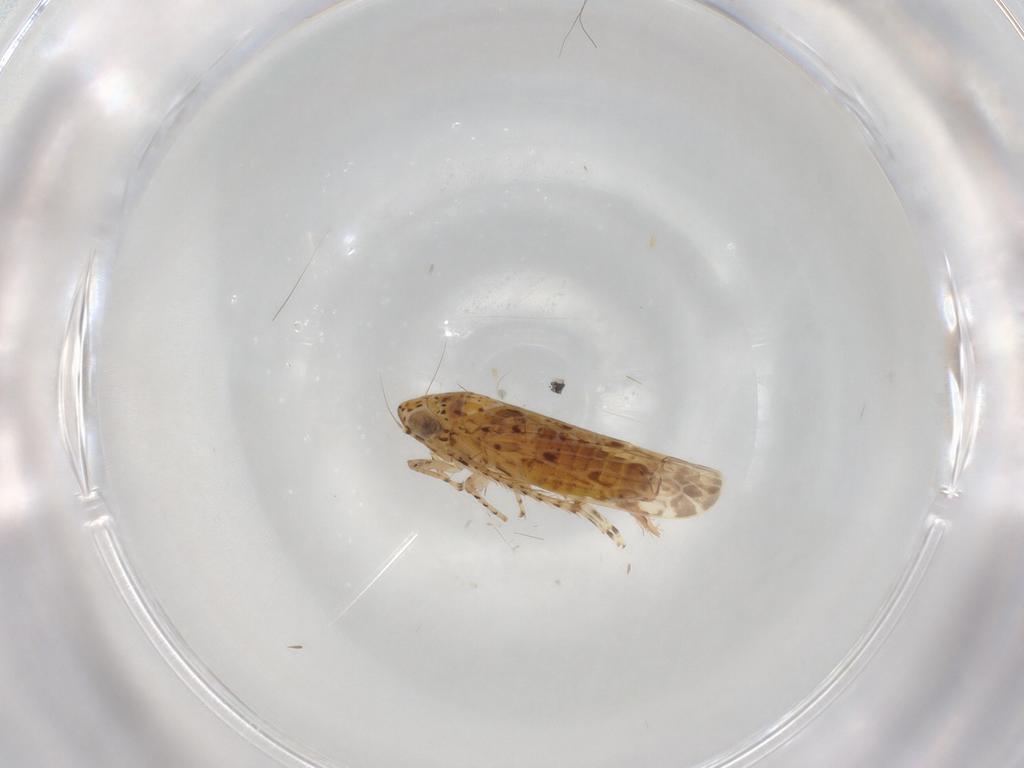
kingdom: Animalia
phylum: Arthropoda
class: Insecta
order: Hemiptera
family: Cicadellidae
